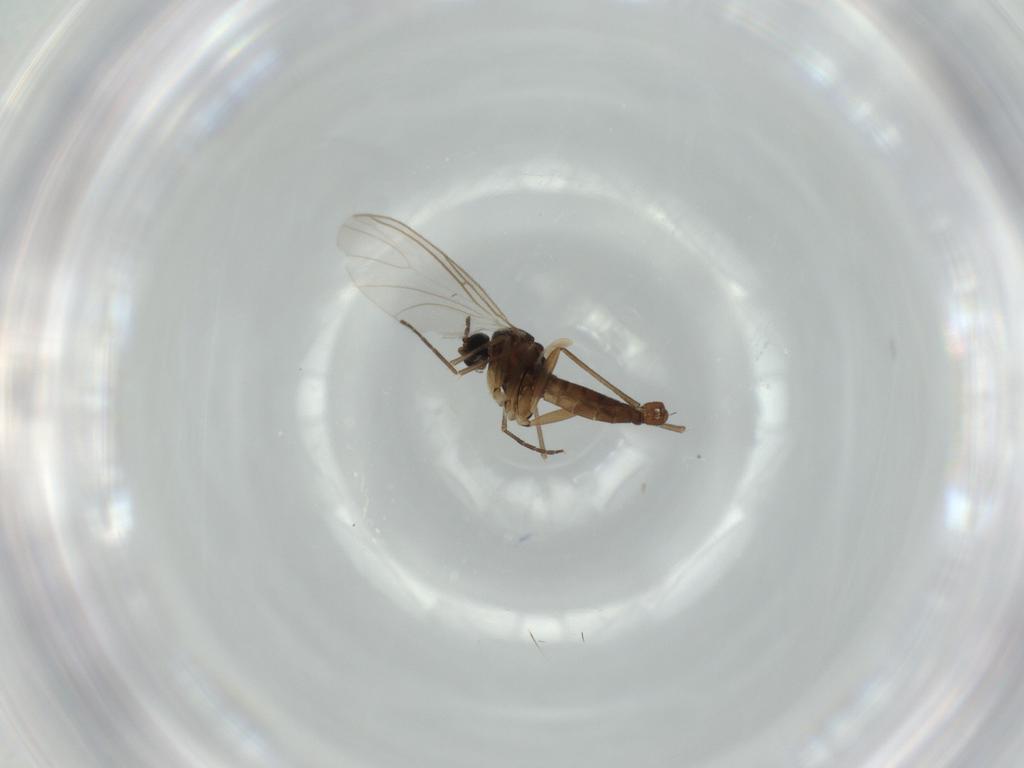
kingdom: Animalia
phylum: Arthropoda
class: Insecta
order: Diptera
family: Sciaridae
